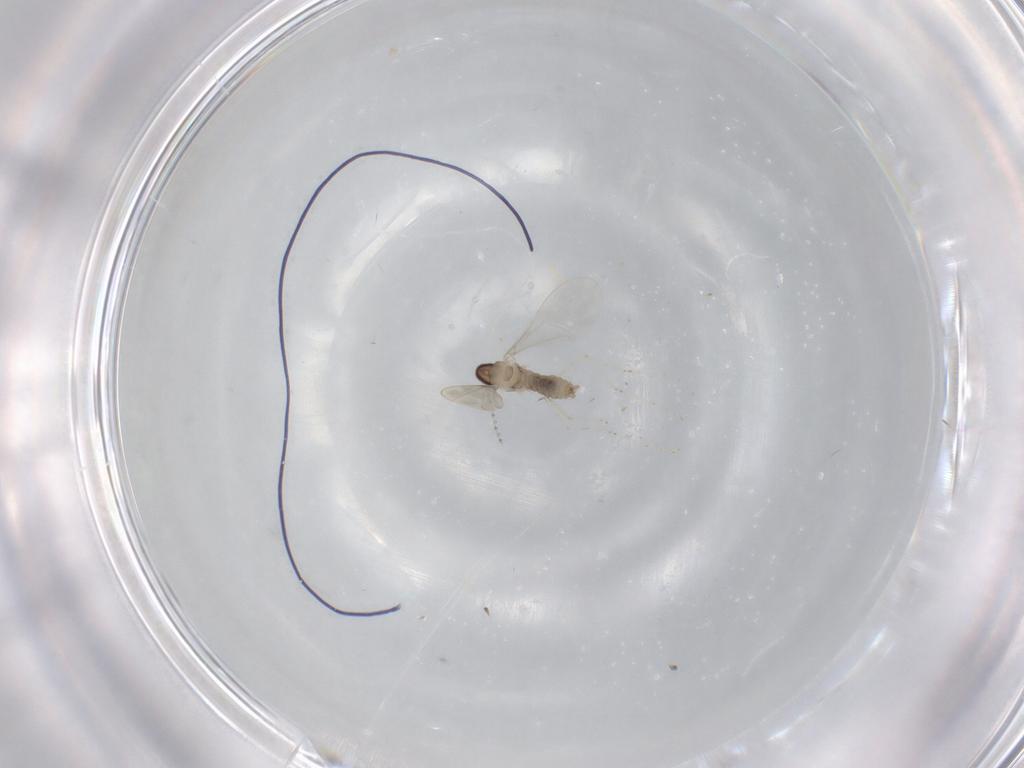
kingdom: Animalia
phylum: Arthropoda
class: Insecta
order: Diptera
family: Cecidomyiidae
